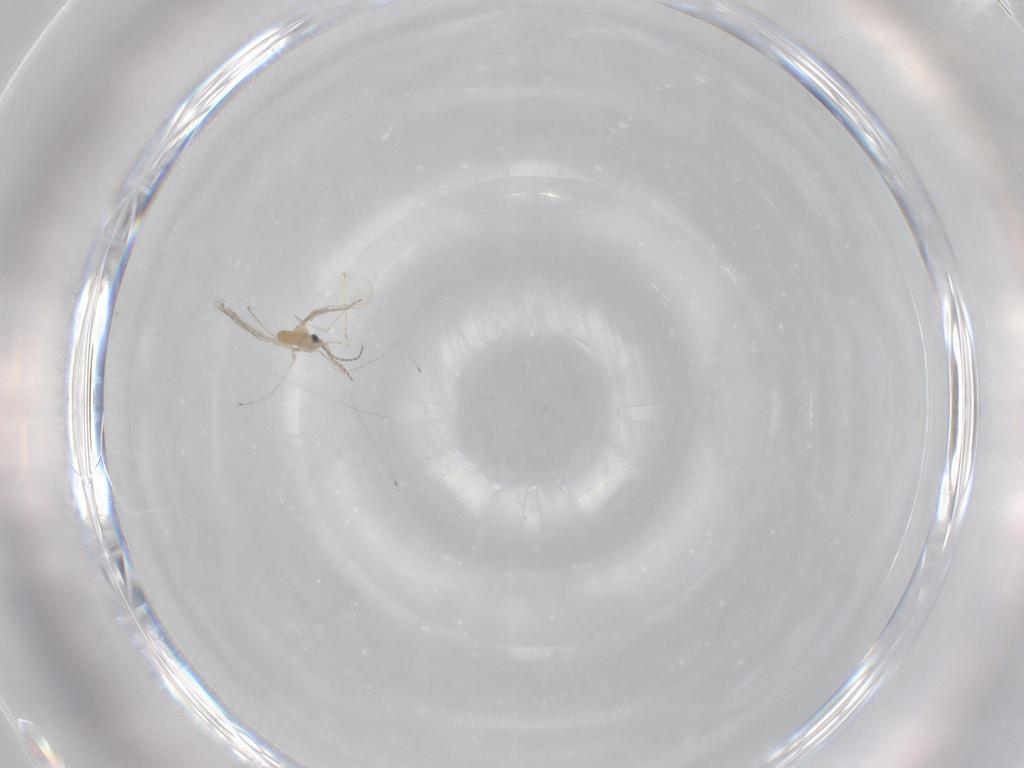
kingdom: Animalia
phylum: Arthropoda
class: Insecta
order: Diptera
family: Cecidomyiidae
